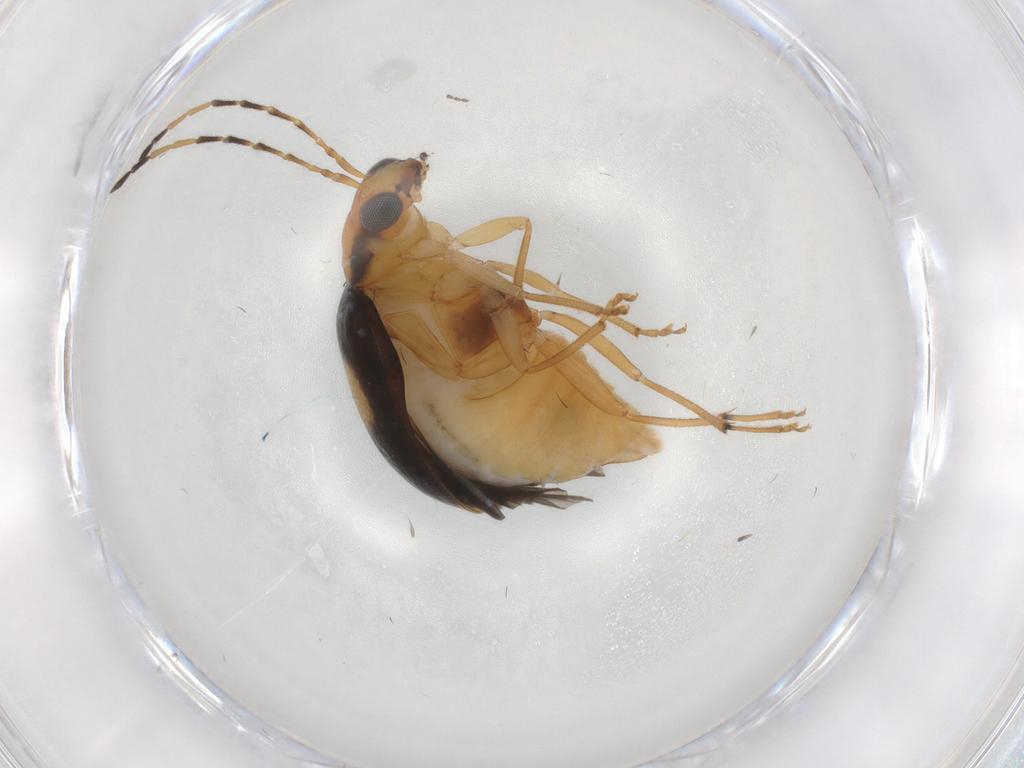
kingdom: Animalia
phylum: Arthropoda
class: Insecta
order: Coleoptera
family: Chrysomelidae
